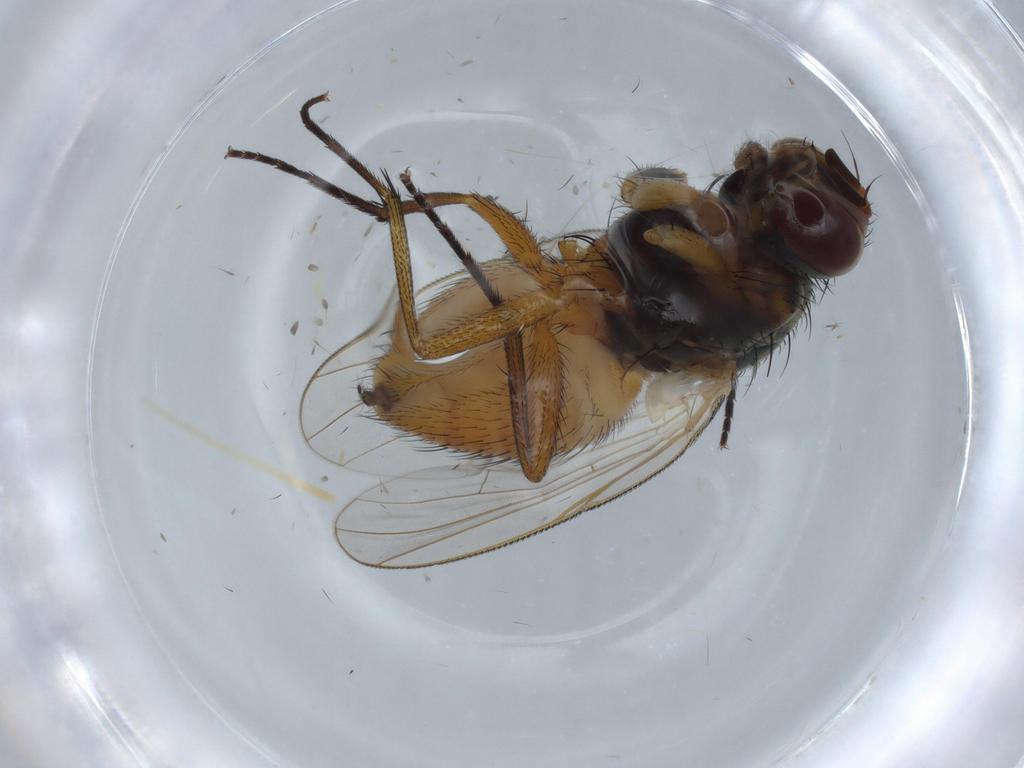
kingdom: Animalia
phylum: Arthropoda
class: Insecta
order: Diptera
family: Muscidae
